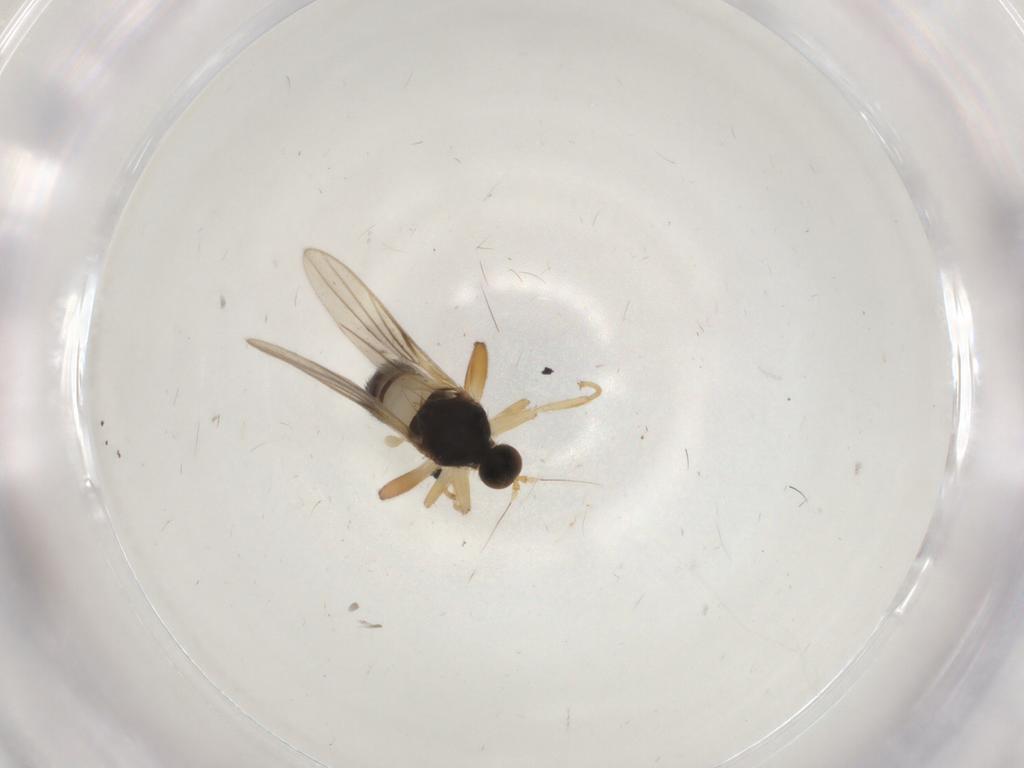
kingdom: Animalia
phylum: Arthropoda
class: Insecta
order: Diptera
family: Hybotidae
